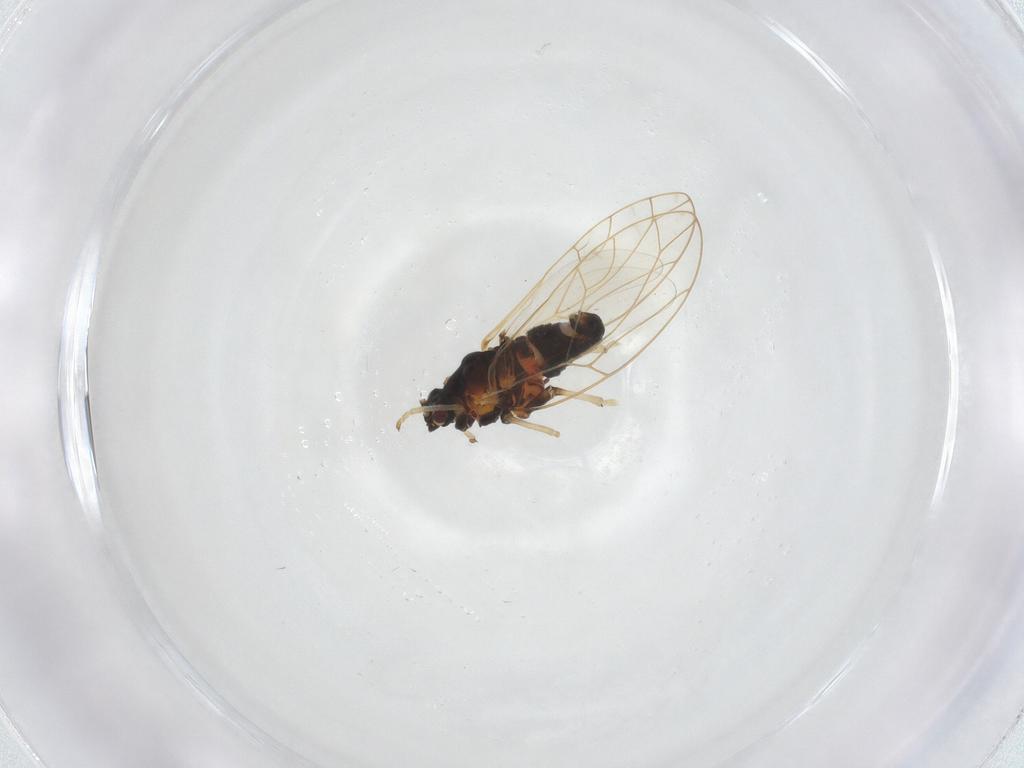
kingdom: Animalia
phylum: Arthropoda
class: Insecta
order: Hemiptera
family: Triozidae
